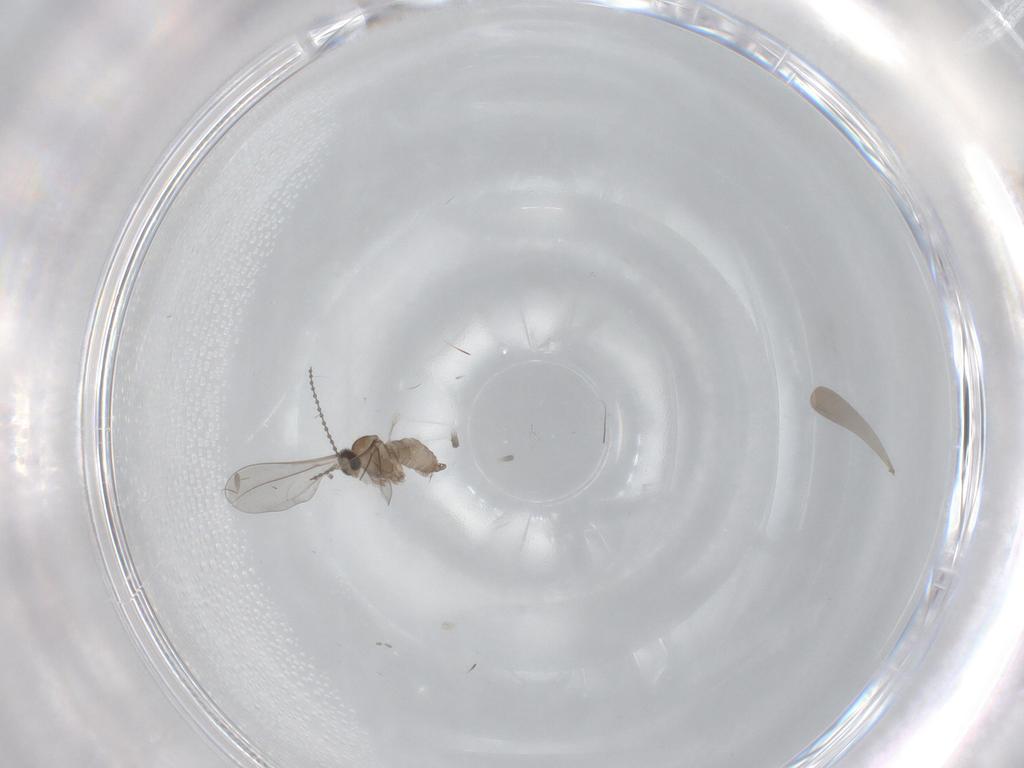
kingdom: Animalia
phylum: Arthropoda
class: Insecta
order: Diptera
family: Cecidomyiidae
